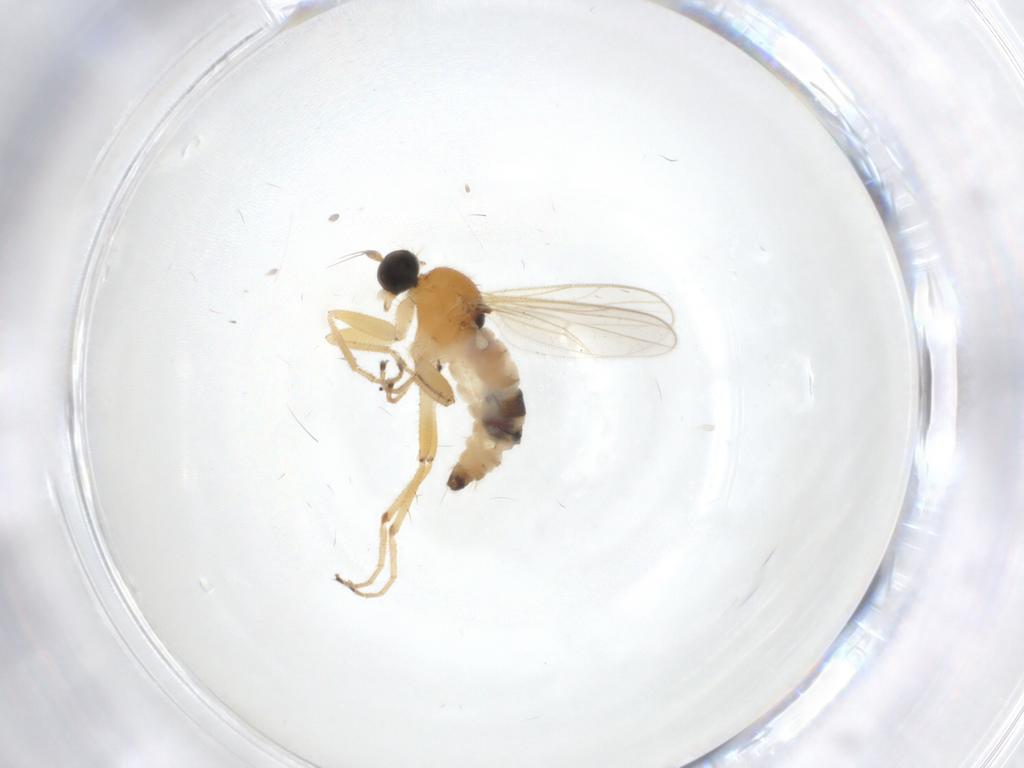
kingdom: Animalia
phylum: Arthropoda
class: Insecta
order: Diptera
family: Hybotidae
